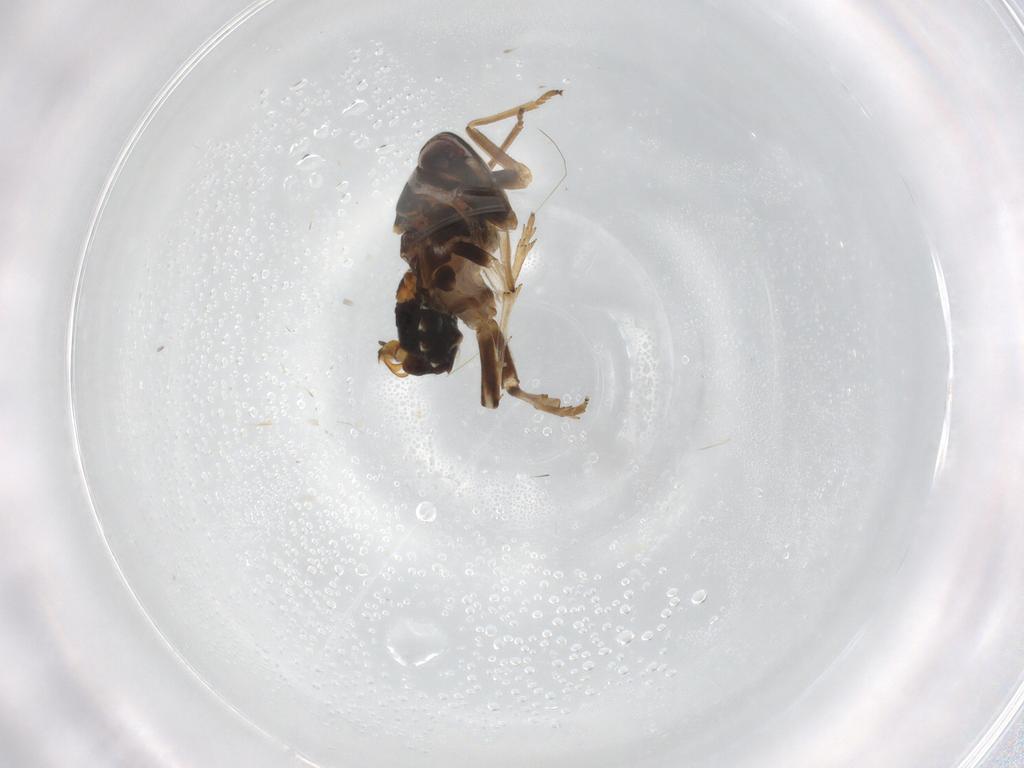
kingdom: Animalia
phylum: Arthropoda
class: Insecta
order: Hemiptera
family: Delphacidae
